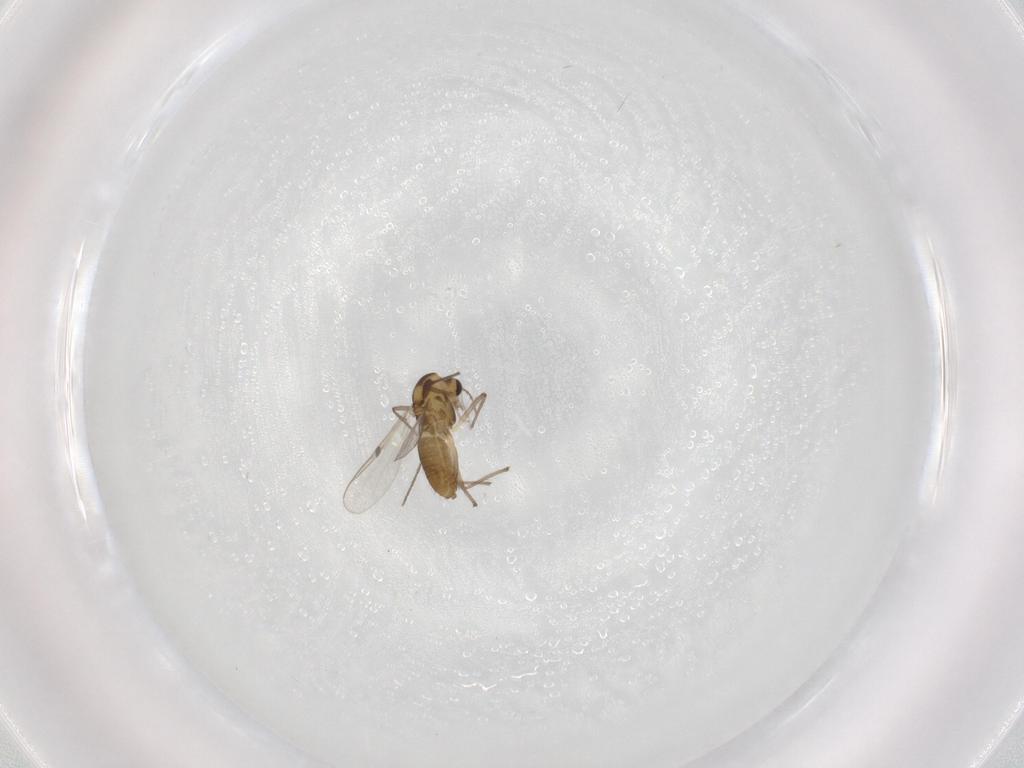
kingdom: Animalia
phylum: Arthropoda
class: Insecta
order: Diptera
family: Chironomidae
